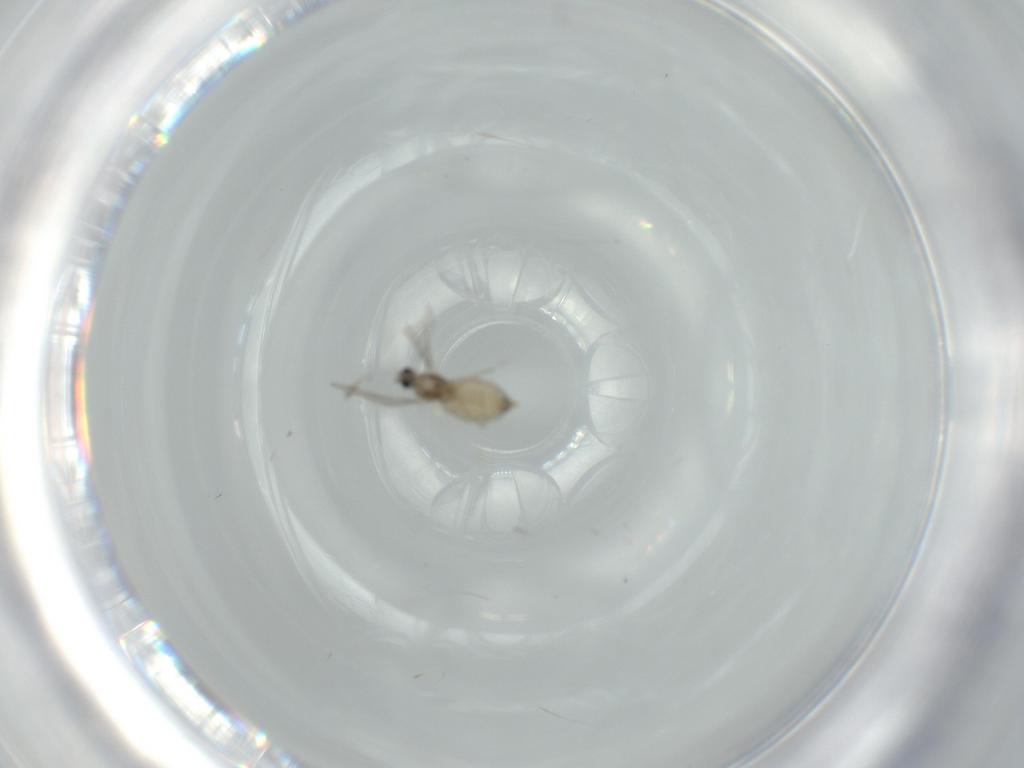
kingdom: Animalia
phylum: Arthropoda
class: Insecta
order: Diptera
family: Cecidomyiidae
